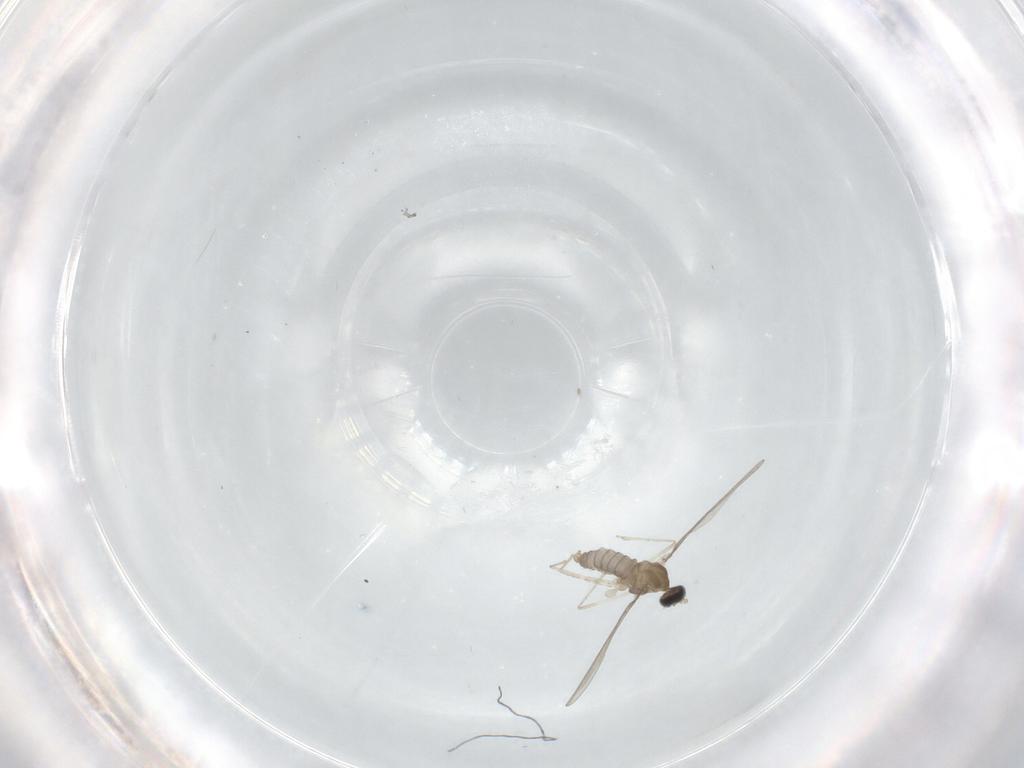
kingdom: Animalia
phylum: Arthropoda
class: Insecta
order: Diptera
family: Cecidomyiidae
